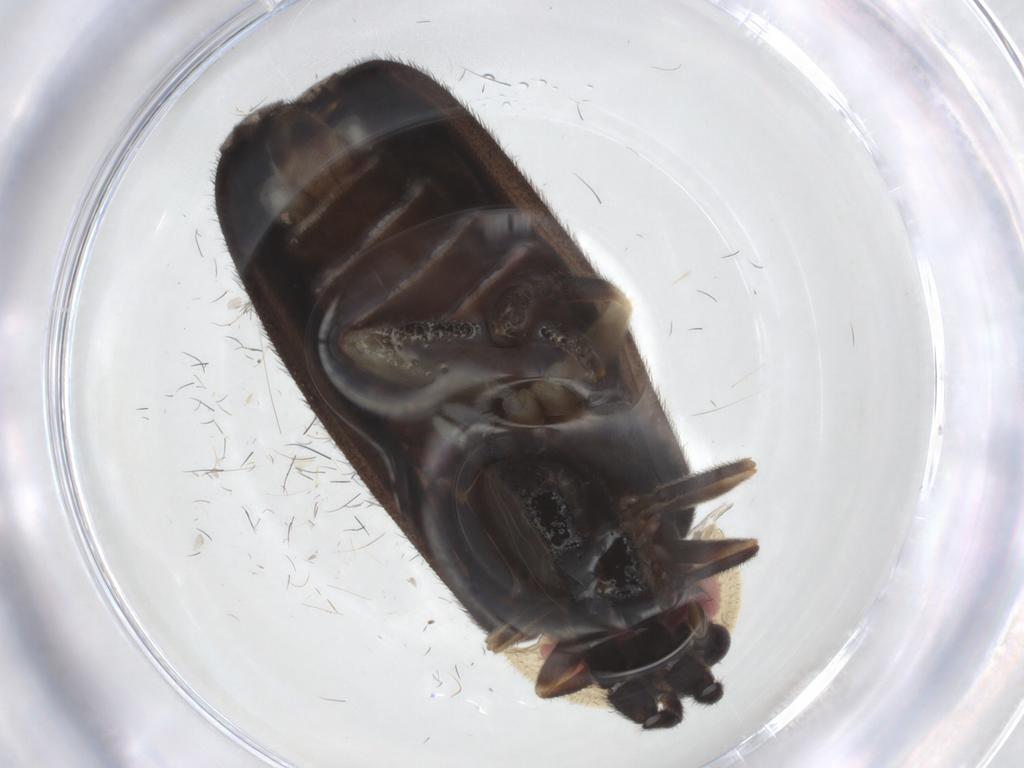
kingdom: Animalia
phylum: Arthropoda
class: Insecta
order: Coleoptera
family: Lampyridae
